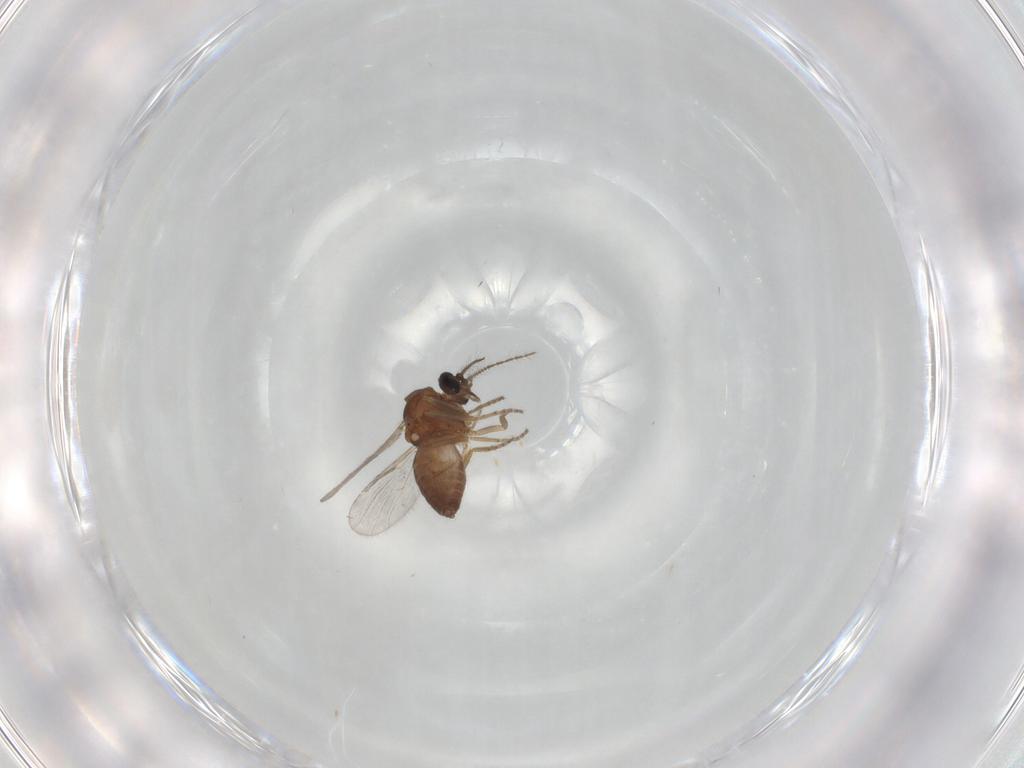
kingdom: Animalia
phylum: Arthropoda
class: Insecta
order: Diptera
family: Ceratopogonidae
